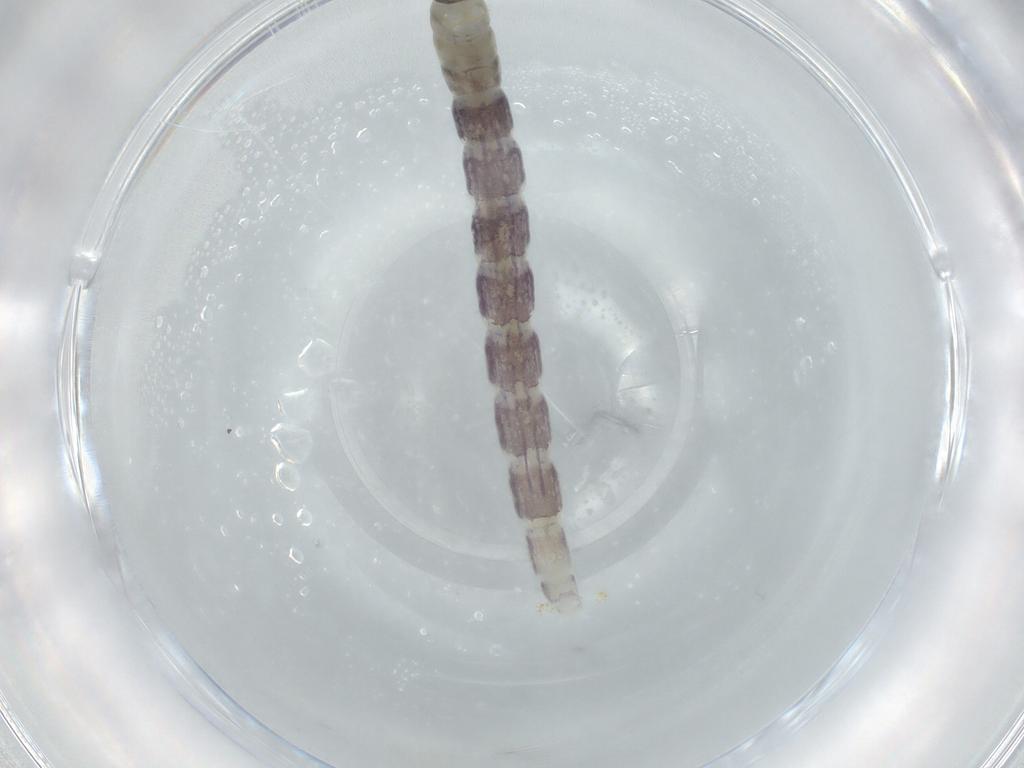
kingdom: Animalia
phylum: Arthropoda
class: Insecta
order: Diptera
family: Chironomidae
